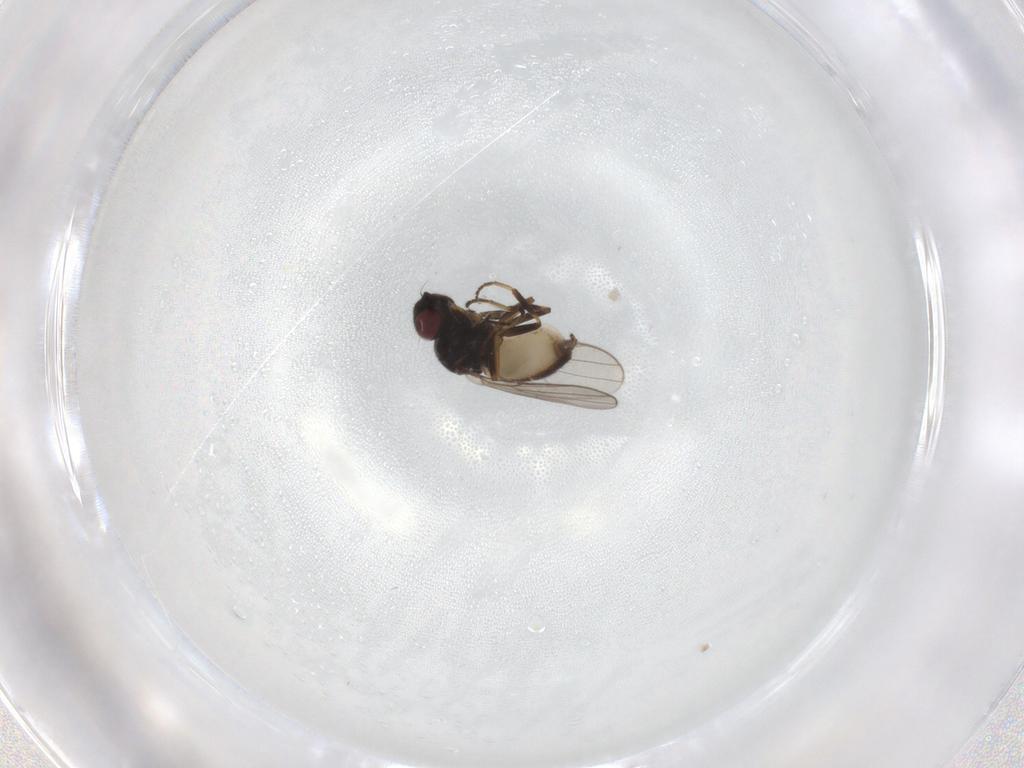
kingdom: Animalia
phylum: Arthropoda
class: Insecta
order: Diptera
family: Chloropidae
